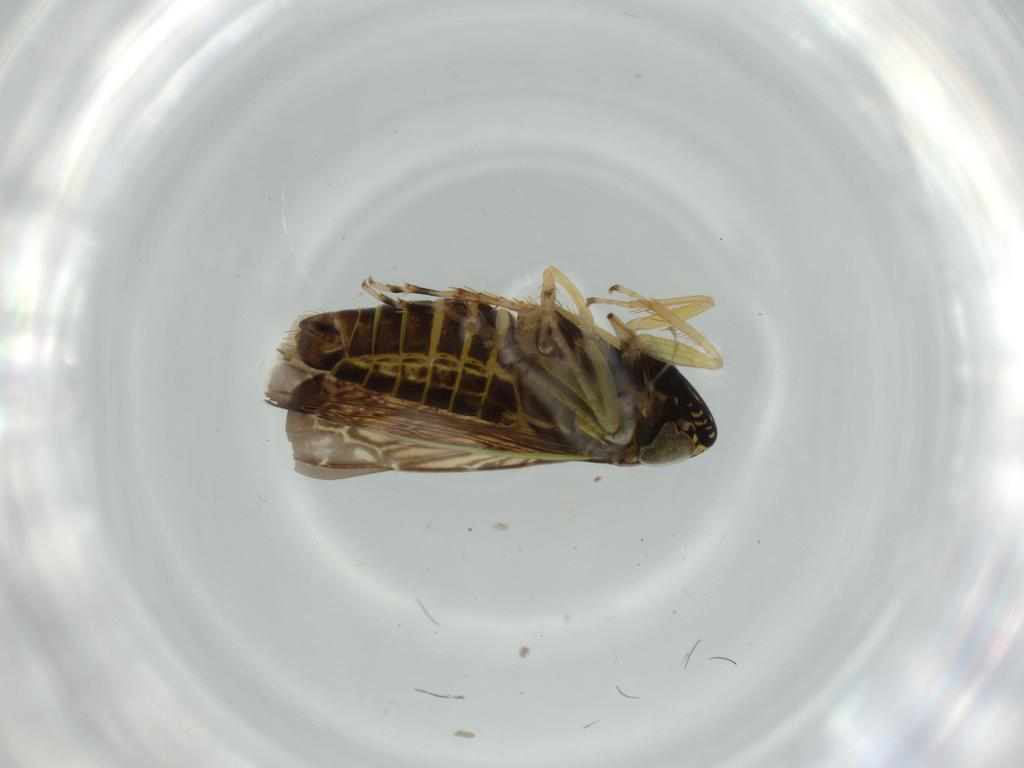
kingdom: Animalia
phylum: Arthropoda
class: Insecta
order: Hemiptera
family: Cicadellidae
